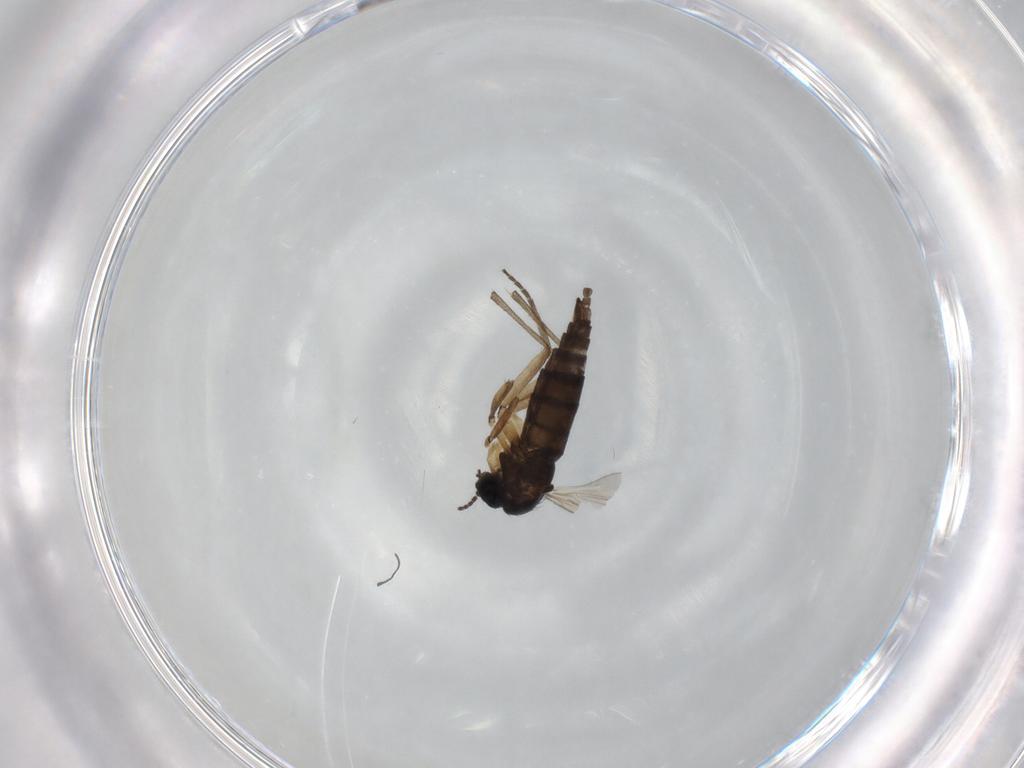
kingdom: Animalia
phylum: Arthropoda
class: Insecta
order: Diptera
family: Sciaridae
